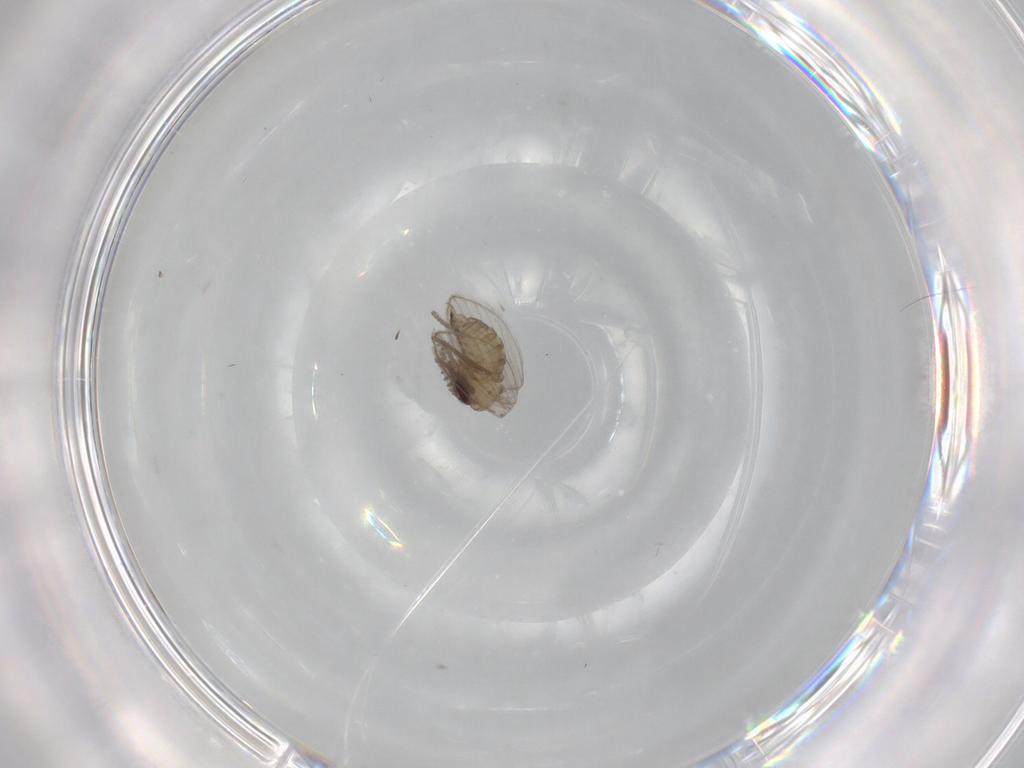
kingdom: Animalia
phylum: Arthropoda
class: Insecta
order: Diptera
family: Psychodidae
